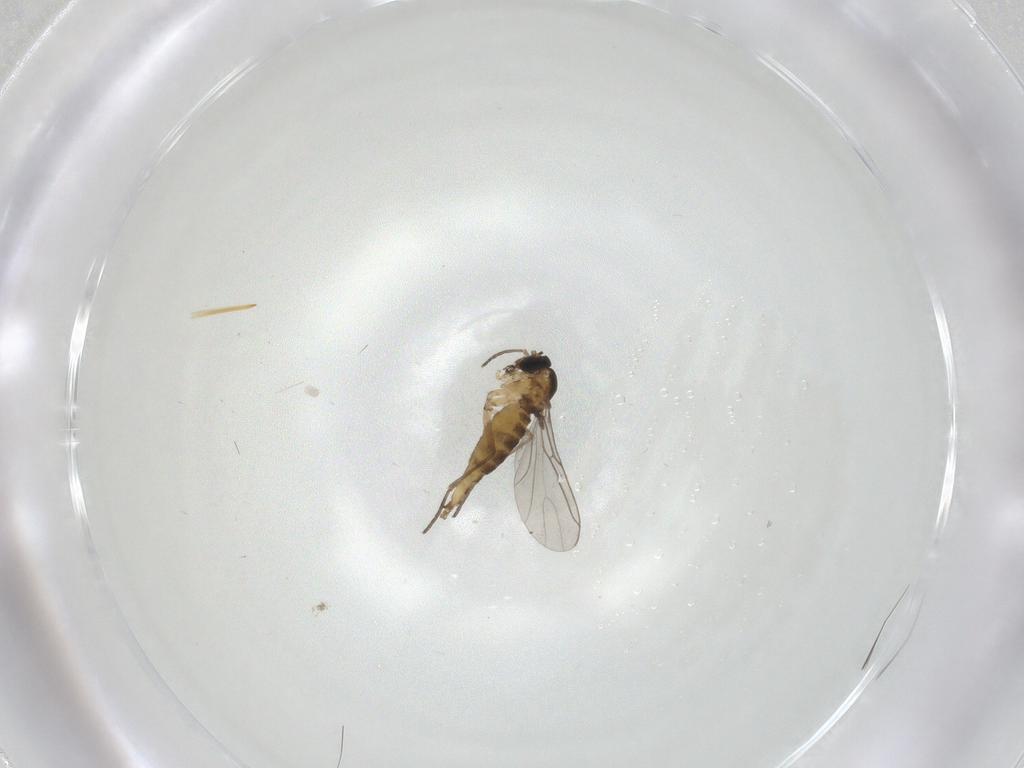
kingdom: Animalia
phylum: Arthropoda
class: Insecta
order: Diptera
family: Sciaridae
